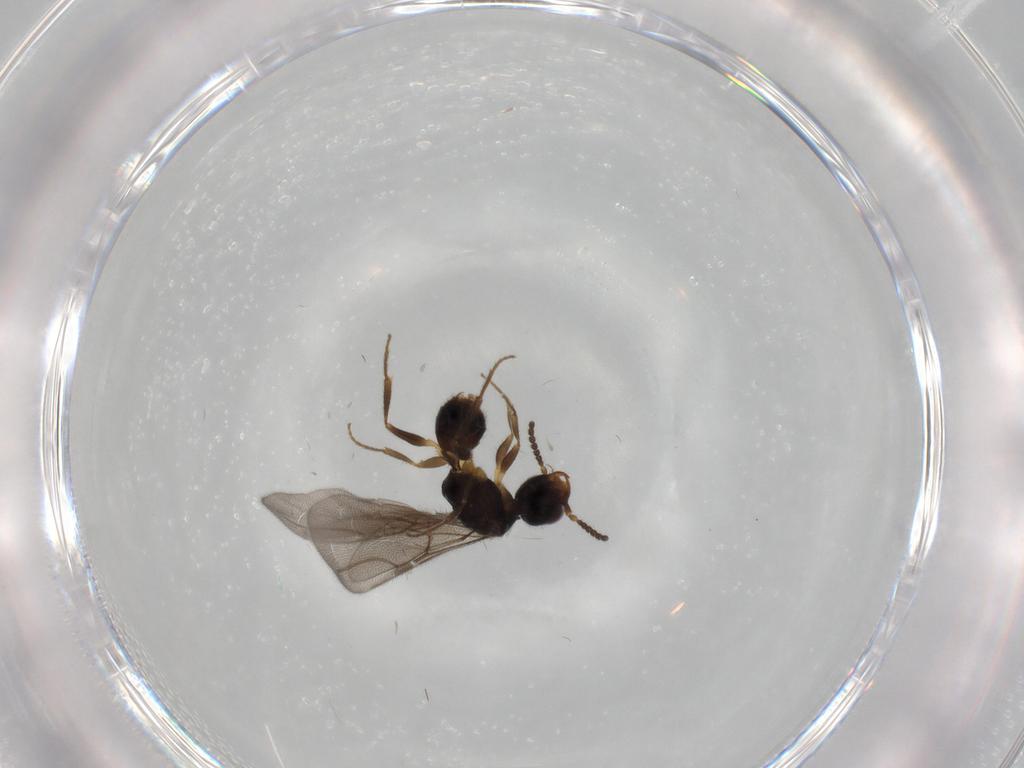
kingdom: Animalia
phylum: Arthropoda
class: Insecta
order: Hymenoptera
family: Bethylidae
